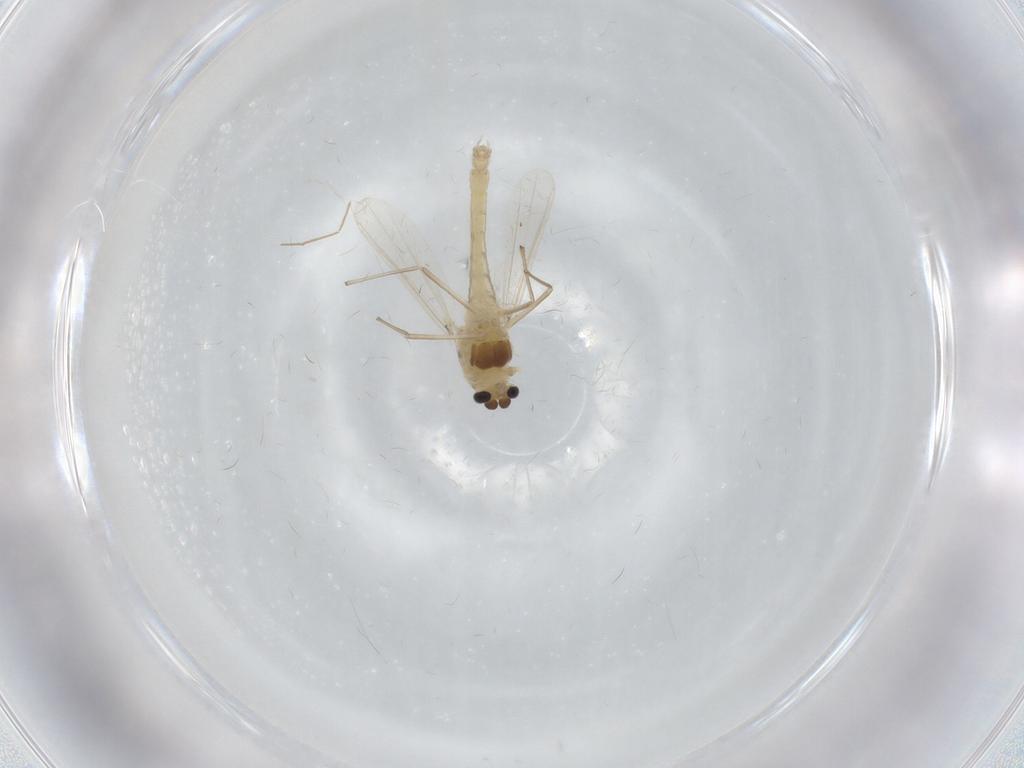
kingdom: Animalia
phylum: Arthropoda
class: Insecta
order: Diptera
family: Chironomidae
